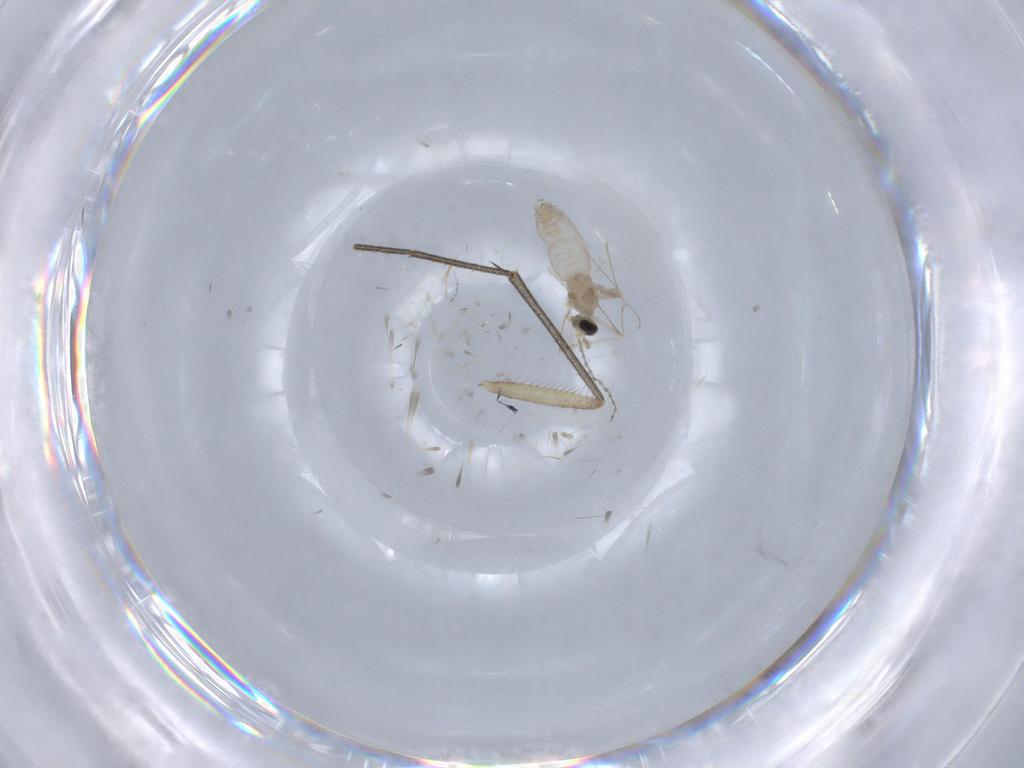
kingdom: Animalia
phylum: Arthropoda
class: Insecta
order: Diptera
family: Cecidomyiidae
